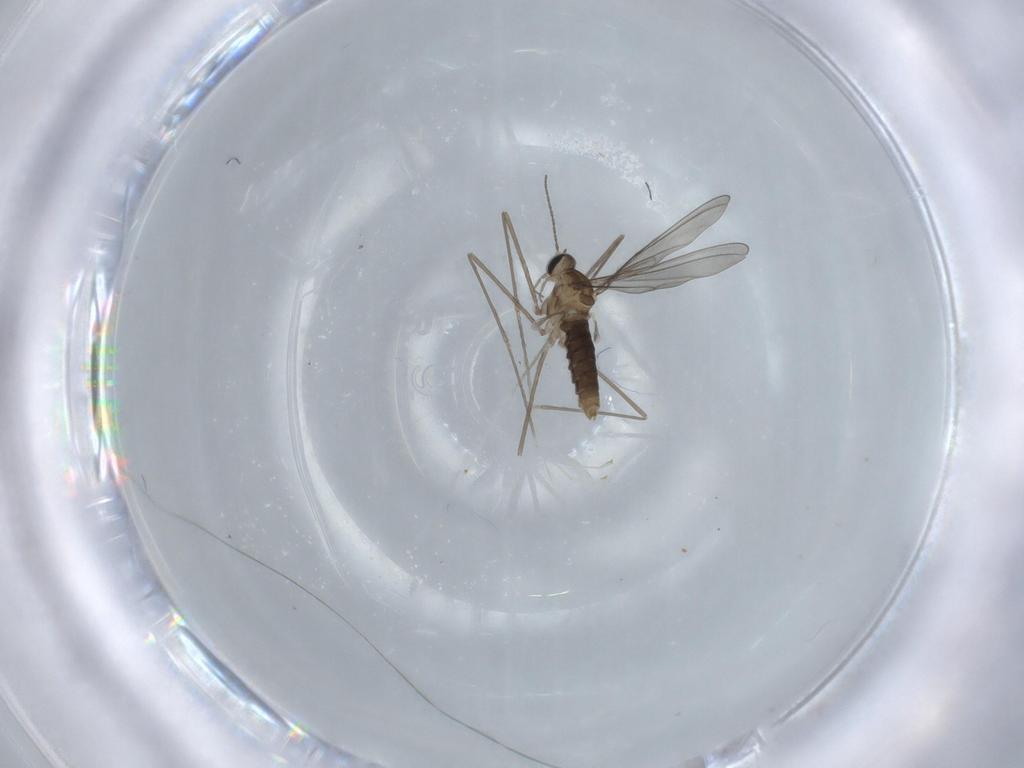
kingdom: Animalia
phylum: Arthropoda
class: Insecta
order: Diptera
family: Cecidomyiidae
